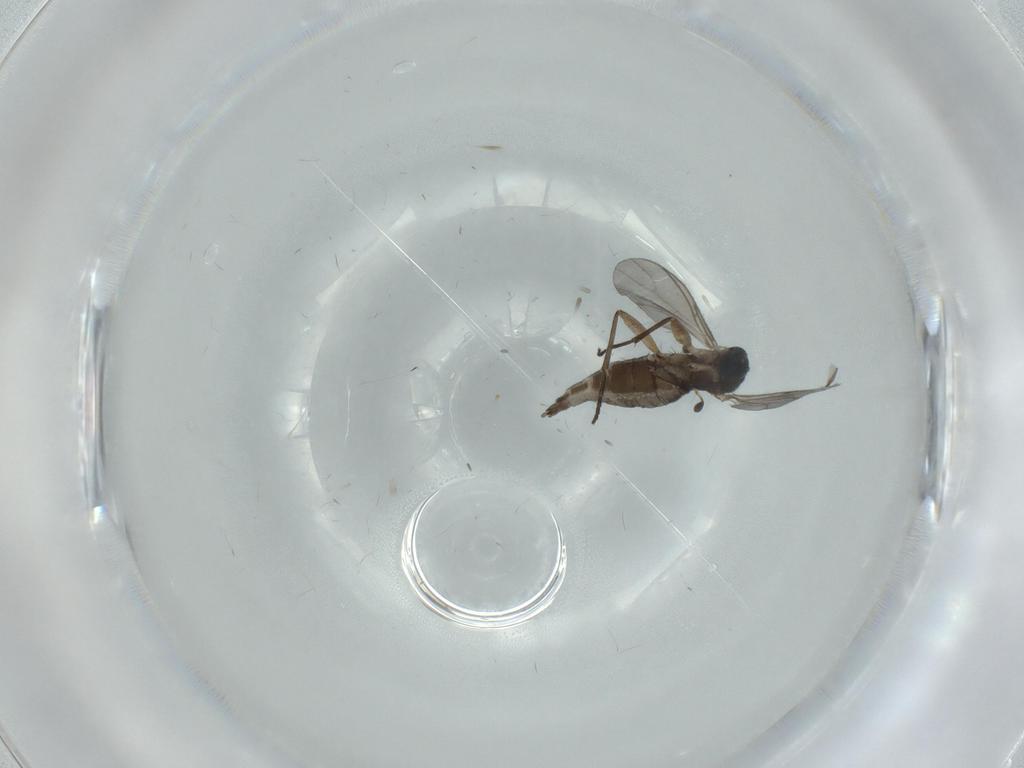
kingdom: Animalia
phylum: Arthropoda
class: Insecta
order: Diptera
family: Sciaridae
